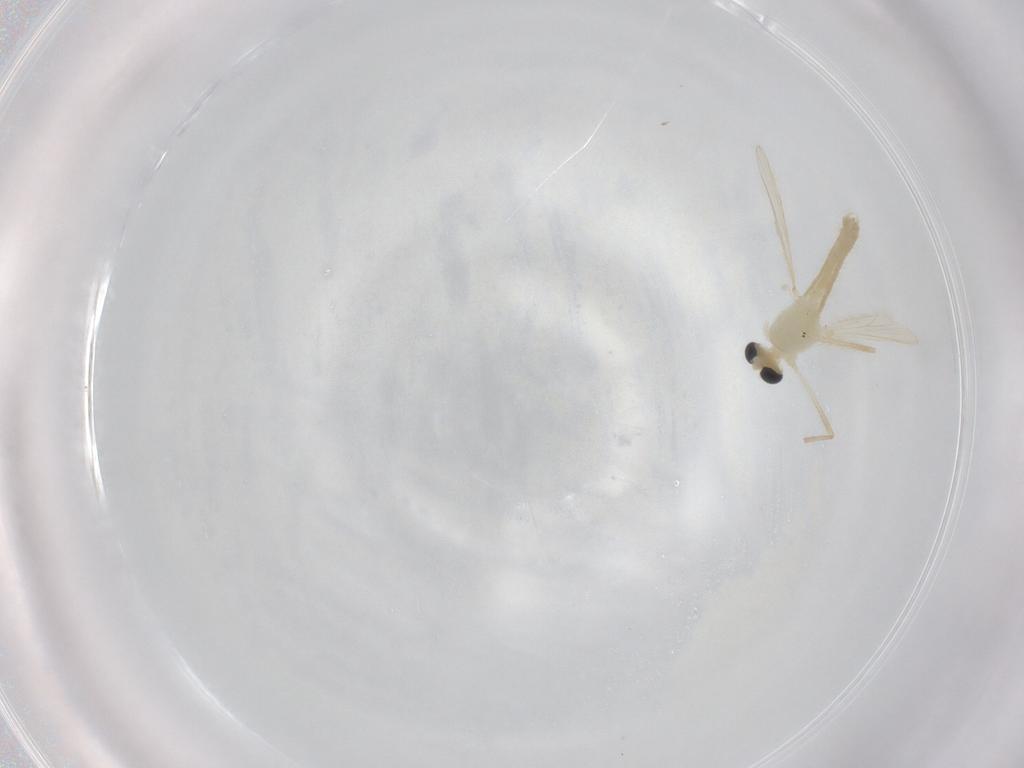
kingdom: Animalia
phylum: Arthropoda
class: Insecta
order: Diptera
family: Chironomidae
